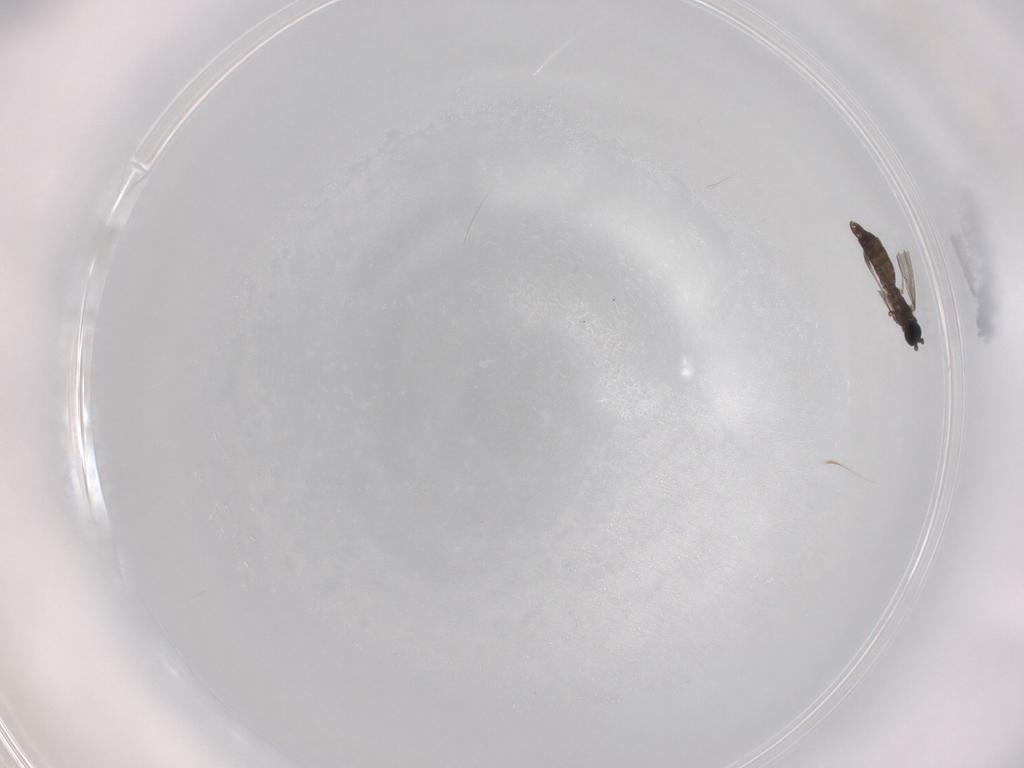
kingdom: Animalia
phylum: Arthropoda
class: Insecta
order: Diptera
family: Sciaridae
